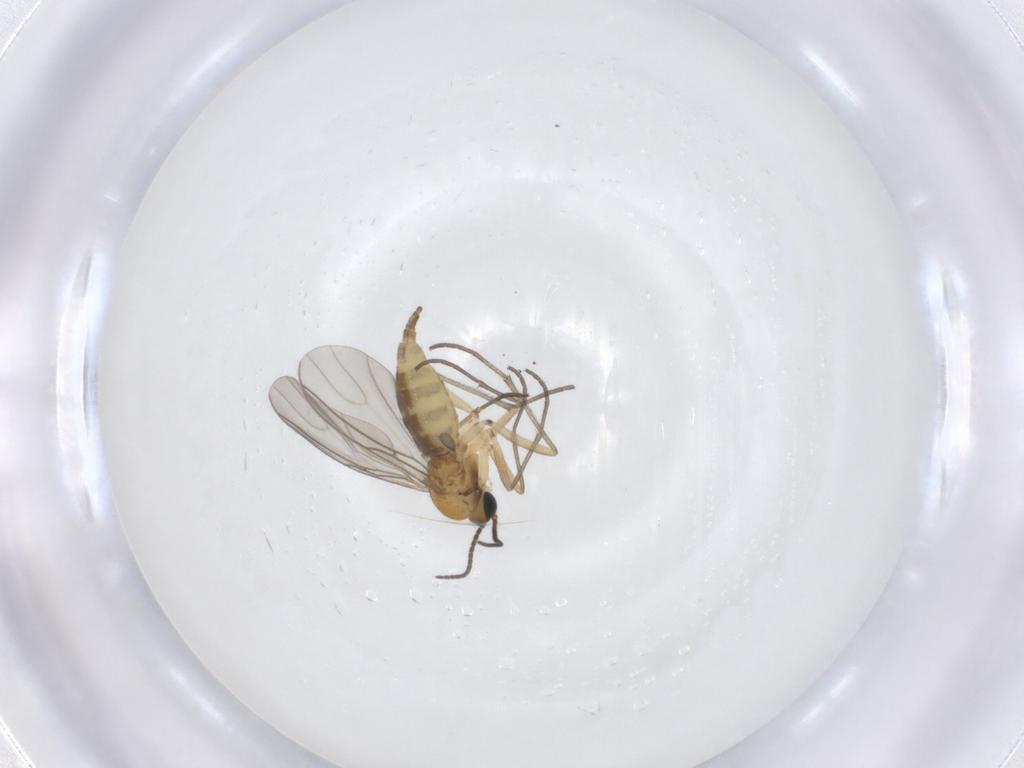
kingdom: Animalia
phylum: Arthropoda
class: Insecta
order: Diptera
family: Sciaridae
